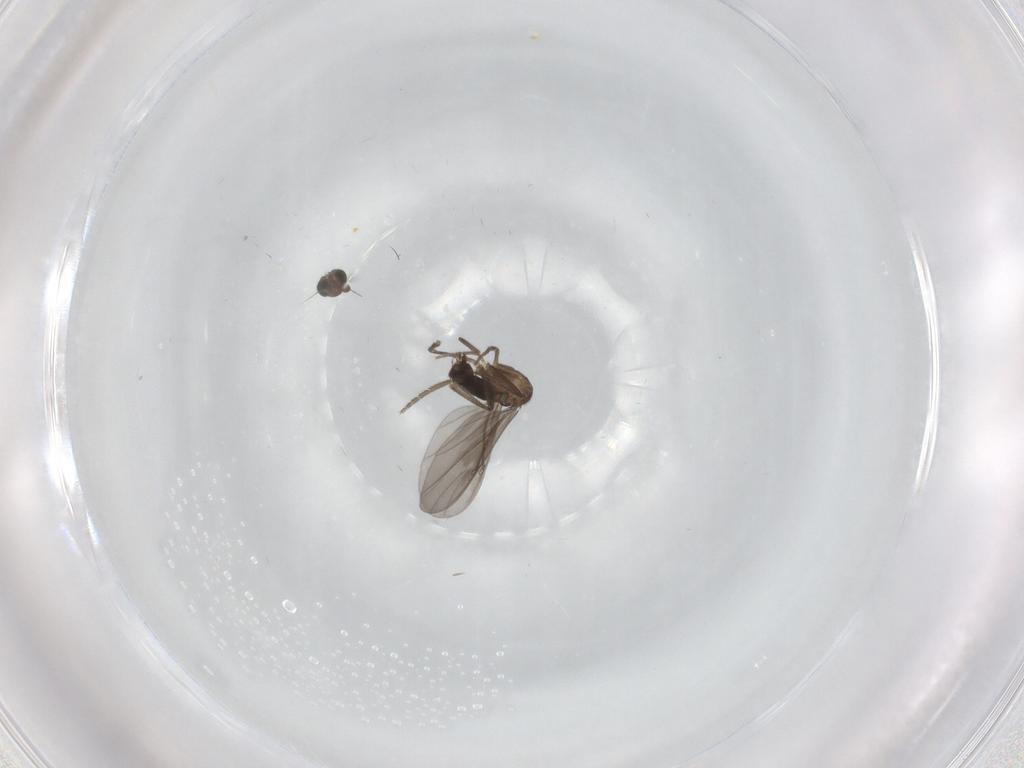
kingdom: Animalia
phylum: Arthropoda
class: Insecta
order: Diptera
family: Phoridae
